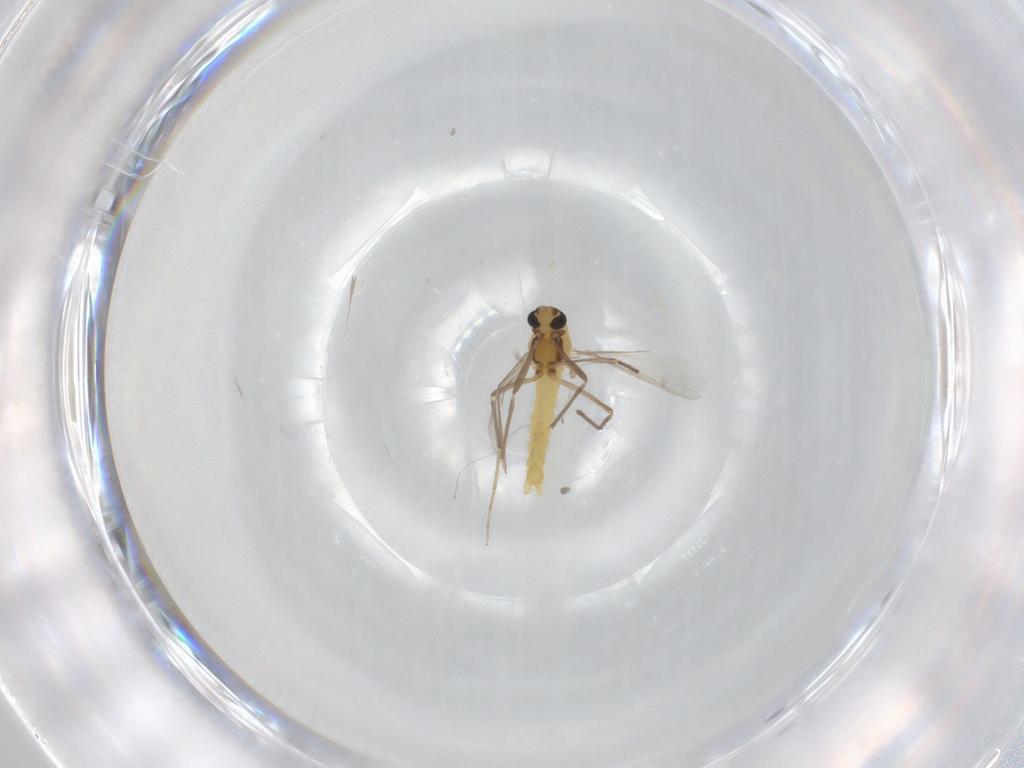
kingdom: Animalia
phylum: Arthropoda
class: Insecta
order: Diptera
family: Chironomidae
